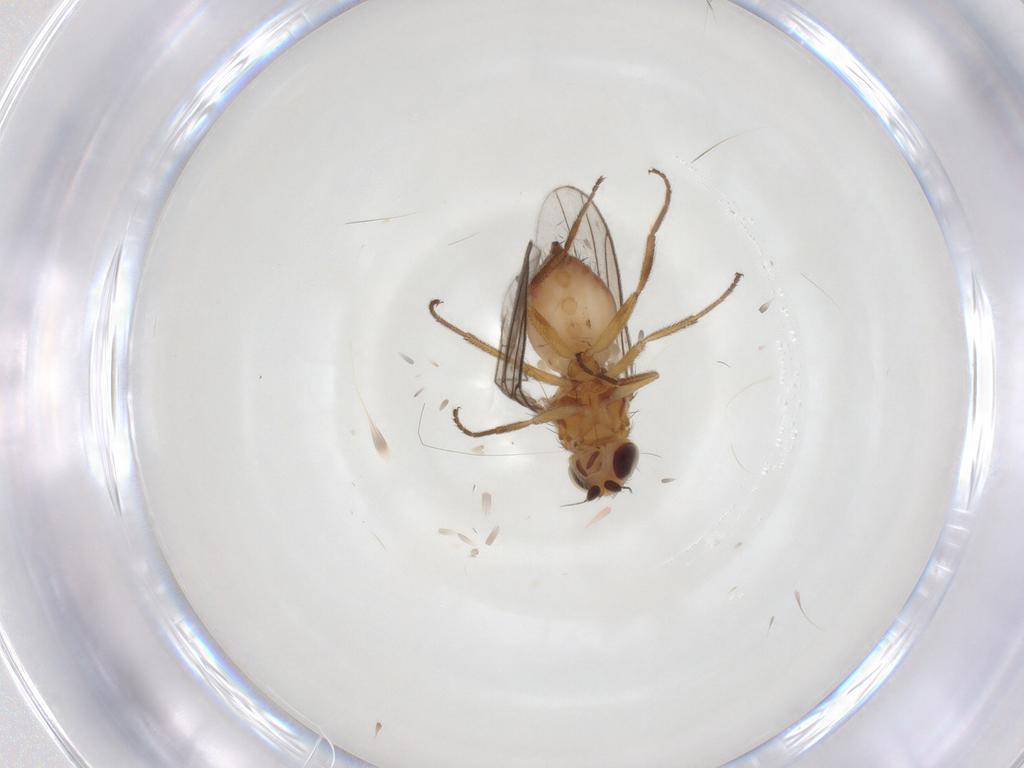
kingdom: Animalia
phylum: Arthropoda
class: Insecta
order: Diptera
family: Chloropidae
